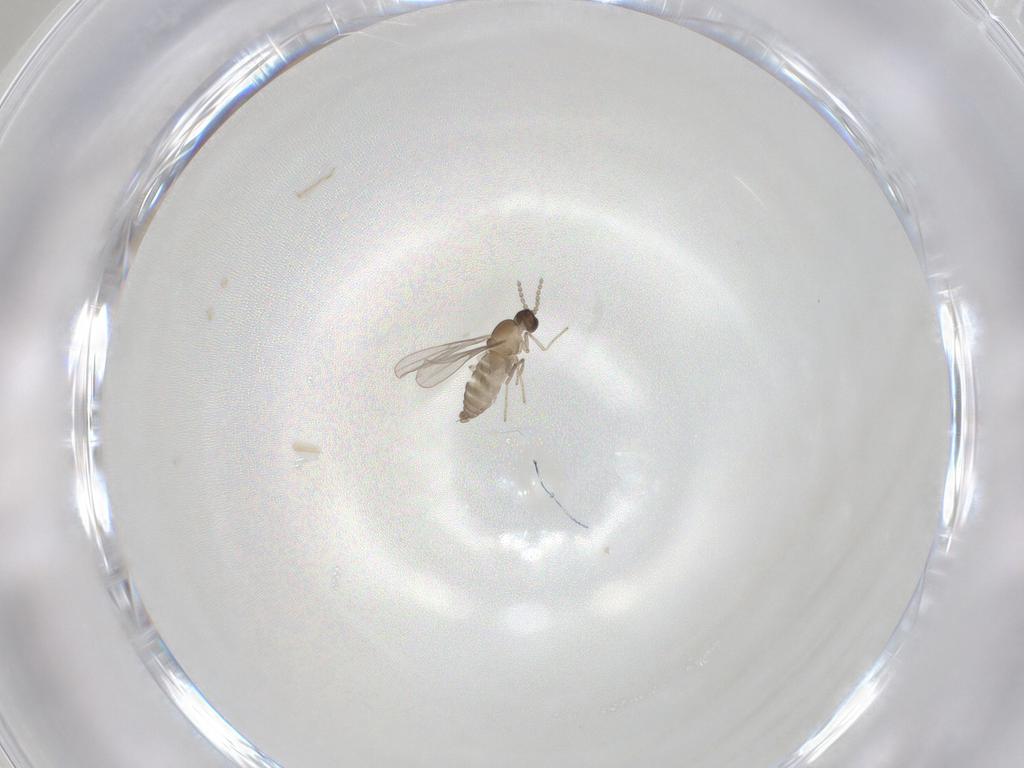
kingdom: Animalia
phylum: Arthropoda
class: Insecta
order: Diptera
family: Cecidomyiidae
